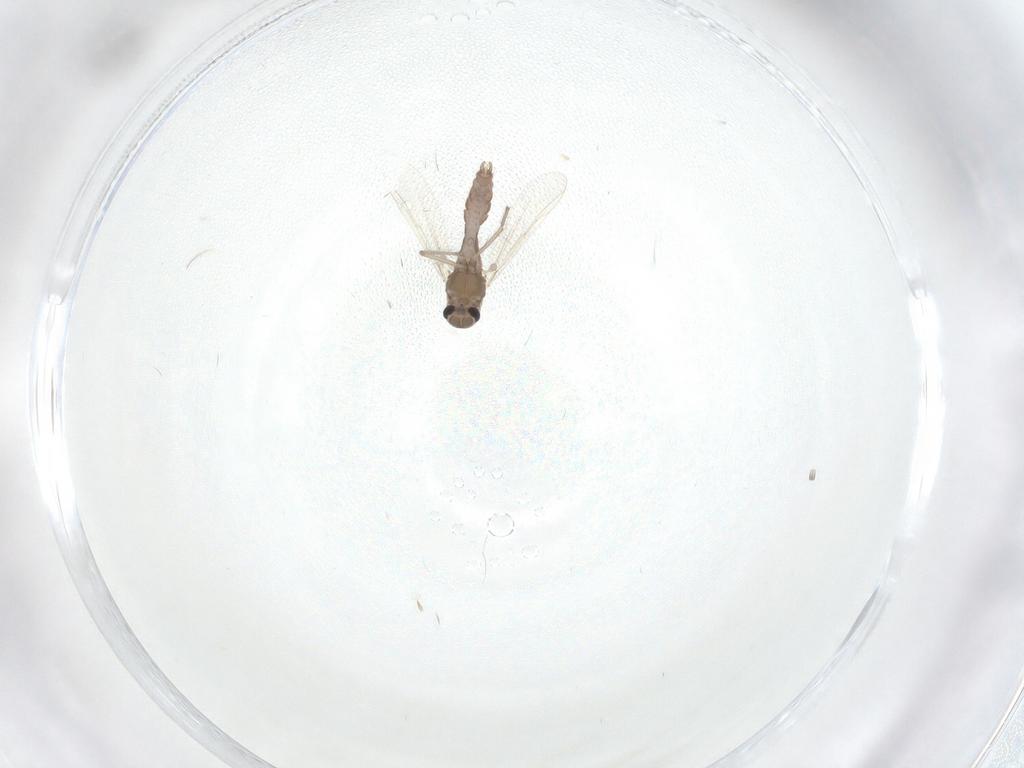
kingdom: Animalia
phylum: Arthropoda
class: Insecta
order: Diptera
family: Chironomidae
